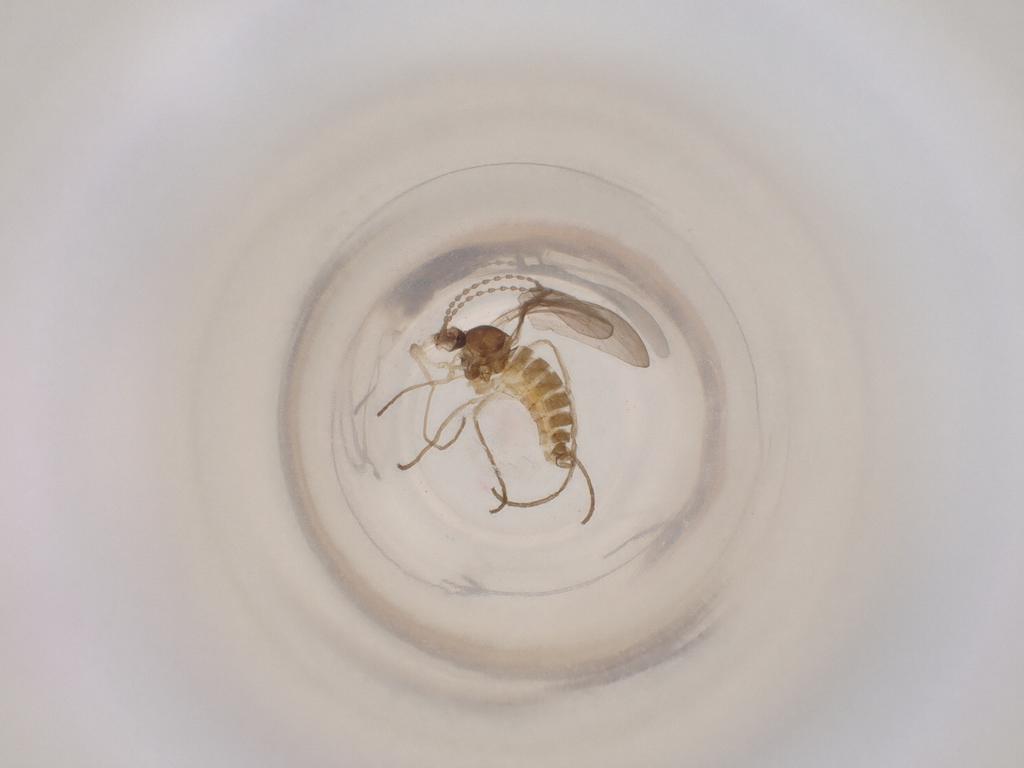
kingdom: Animalia
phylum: Arthropoda
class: Insecta
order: Diptera
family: Cecidomyiidae
